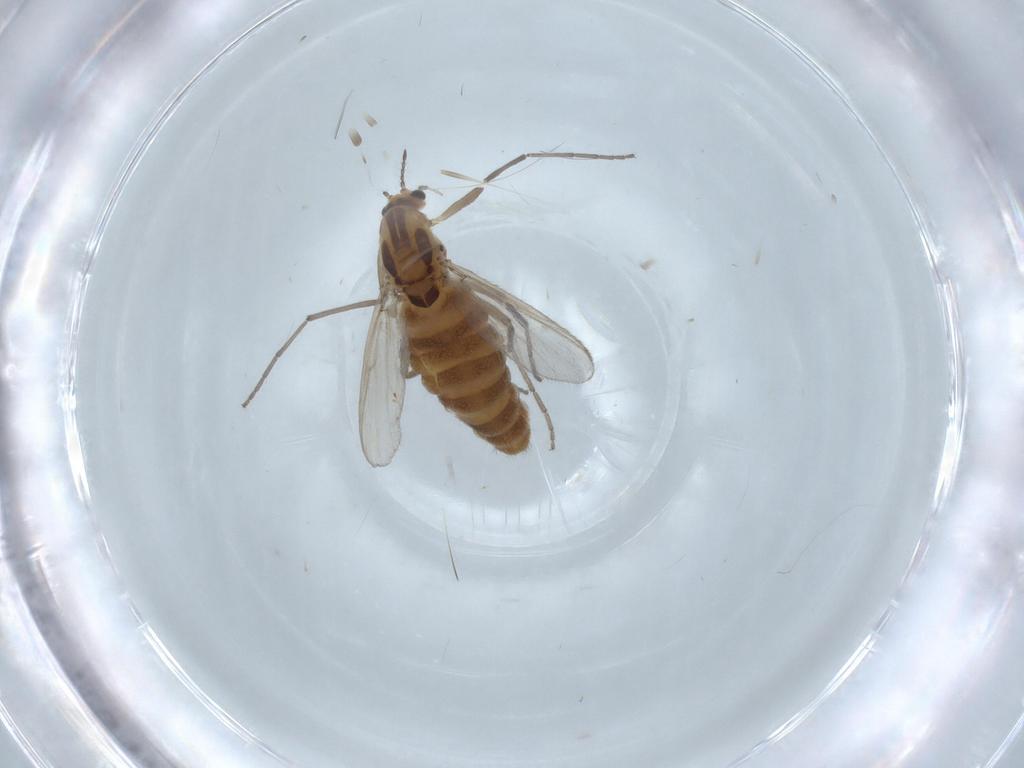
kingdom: Animalia
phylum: Arthropoda
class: Insecta
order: Diptera
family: Chironomidae
